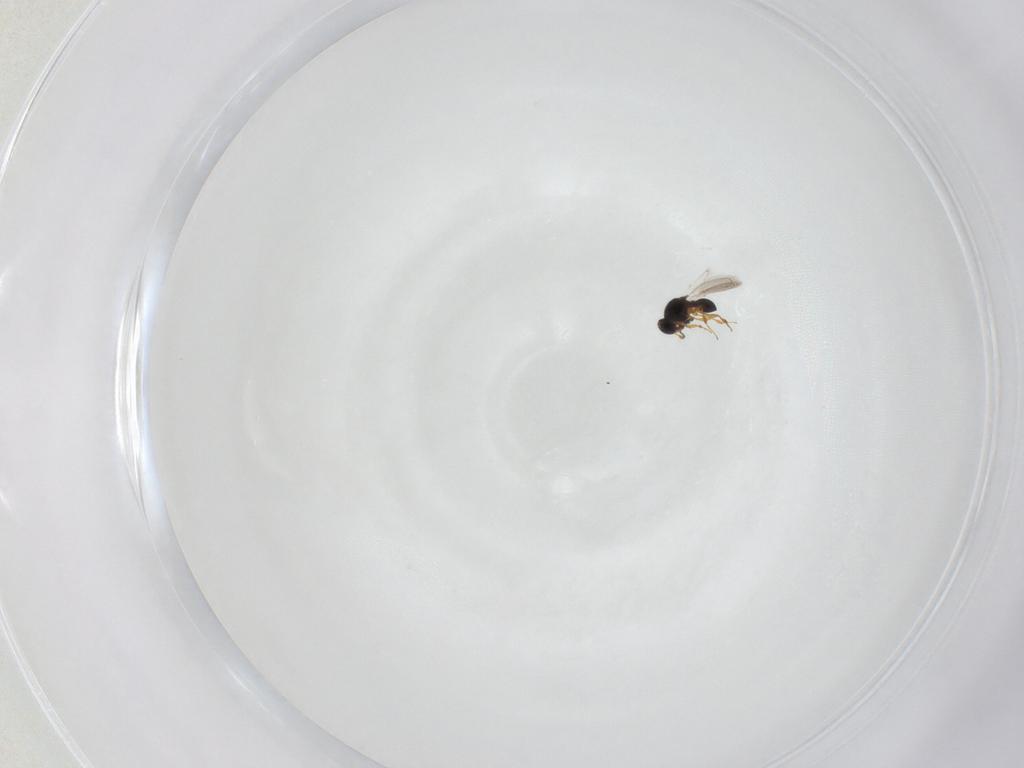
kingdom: Animalia
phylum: Arthropoda
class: Insecta
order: Hymenoptera
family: Platygastridae
